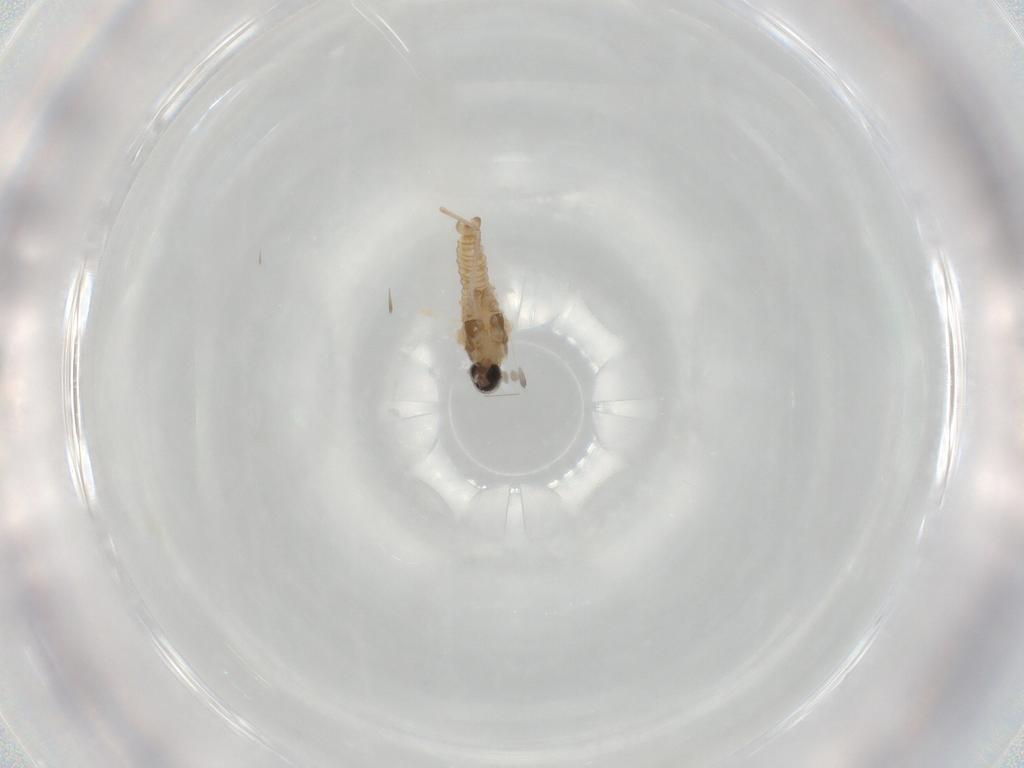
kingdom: Animalia
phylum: Arthropoda
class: Insecta
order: Diptera
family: Cecidomyiidae
